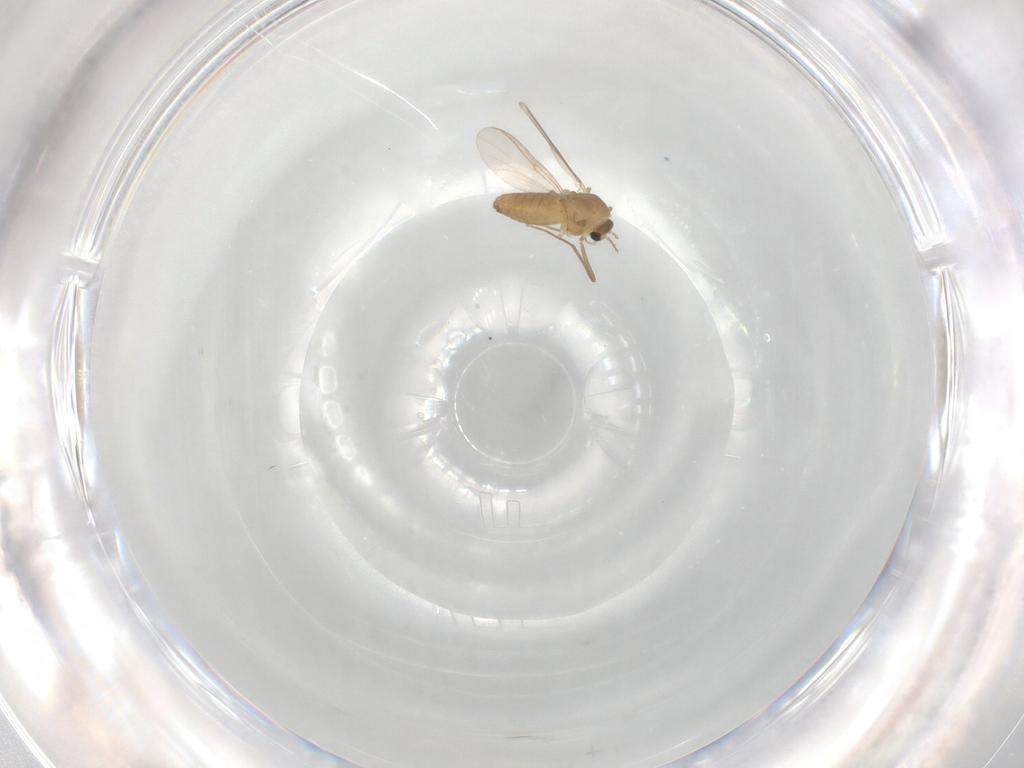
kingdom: Animalia
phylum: Arthropoda
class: Insecta
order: Diptera
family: Chironomidae
